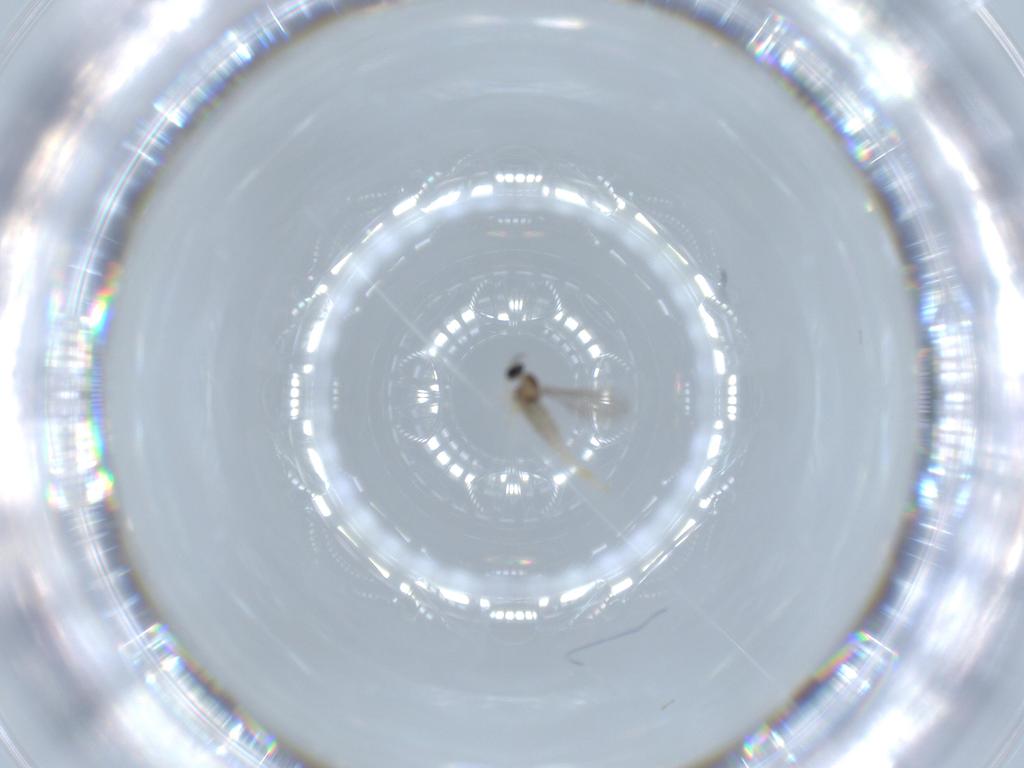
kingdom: Animalia
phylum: Arthropoda
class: Insecta
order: Diptera
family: Cecidomyiidae
